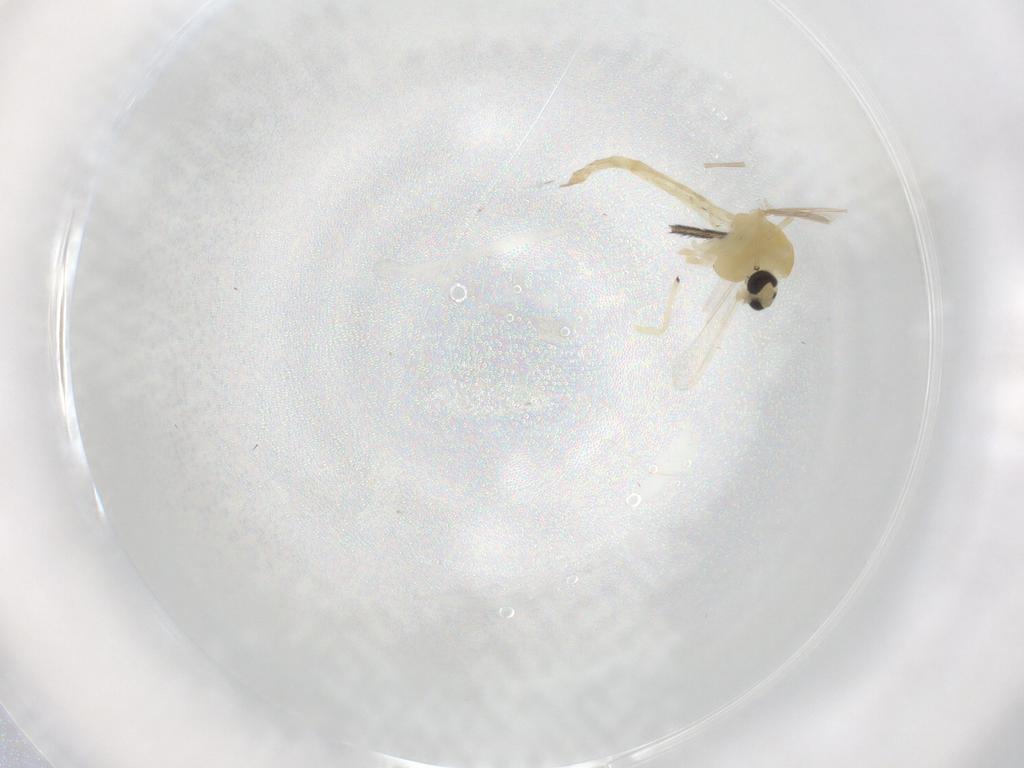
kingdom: Animalia
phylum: Arthropoda
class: Insecta
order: Diptera
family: Chironomidae
